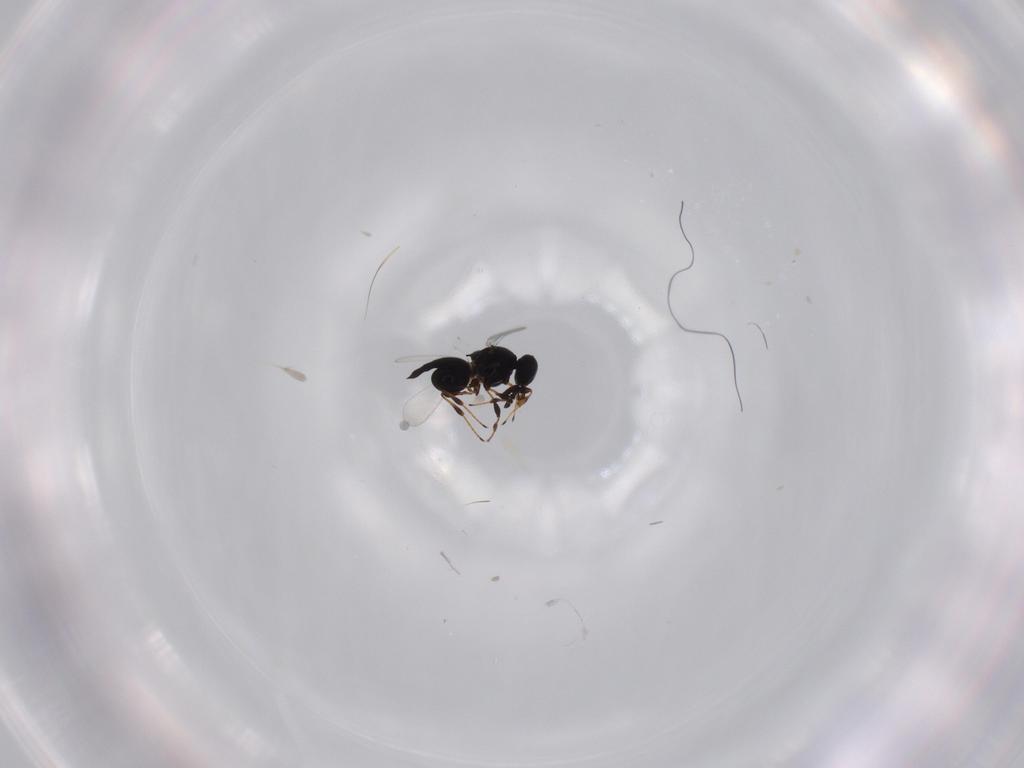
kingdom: Animalia
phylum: Arthropoda
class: Insecta
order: Hymenoptera
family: Platygastridae
